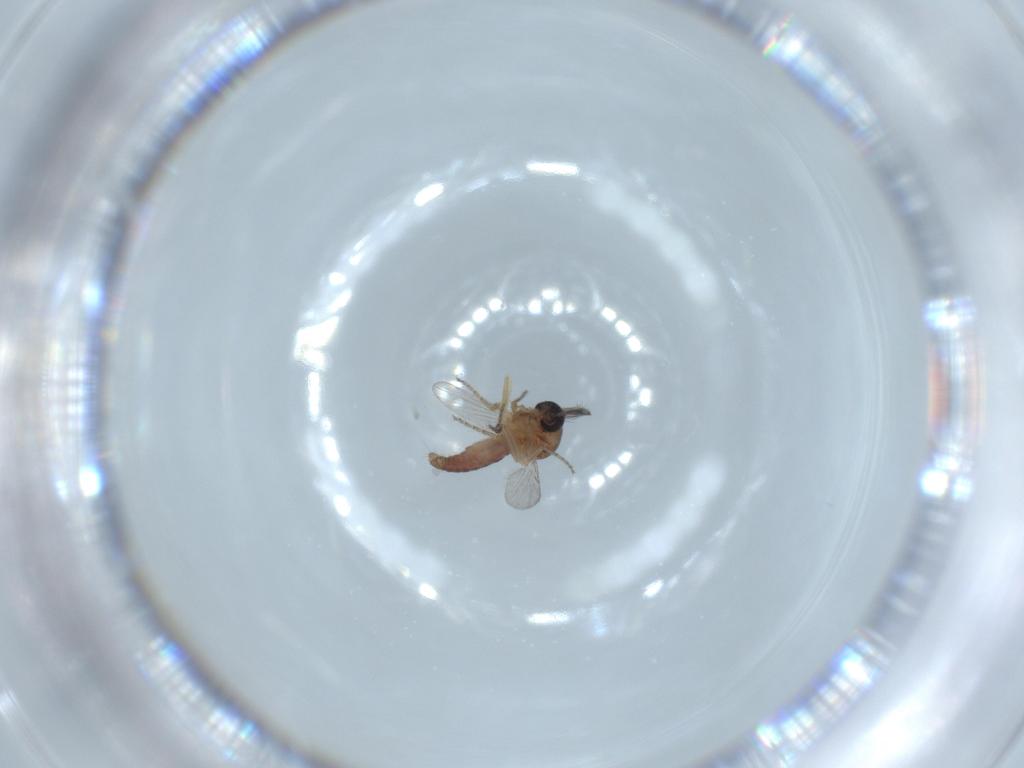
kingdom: Animalia
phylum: Arthropoda
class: Insecta
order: Diptera
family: Ceratopogonidae
